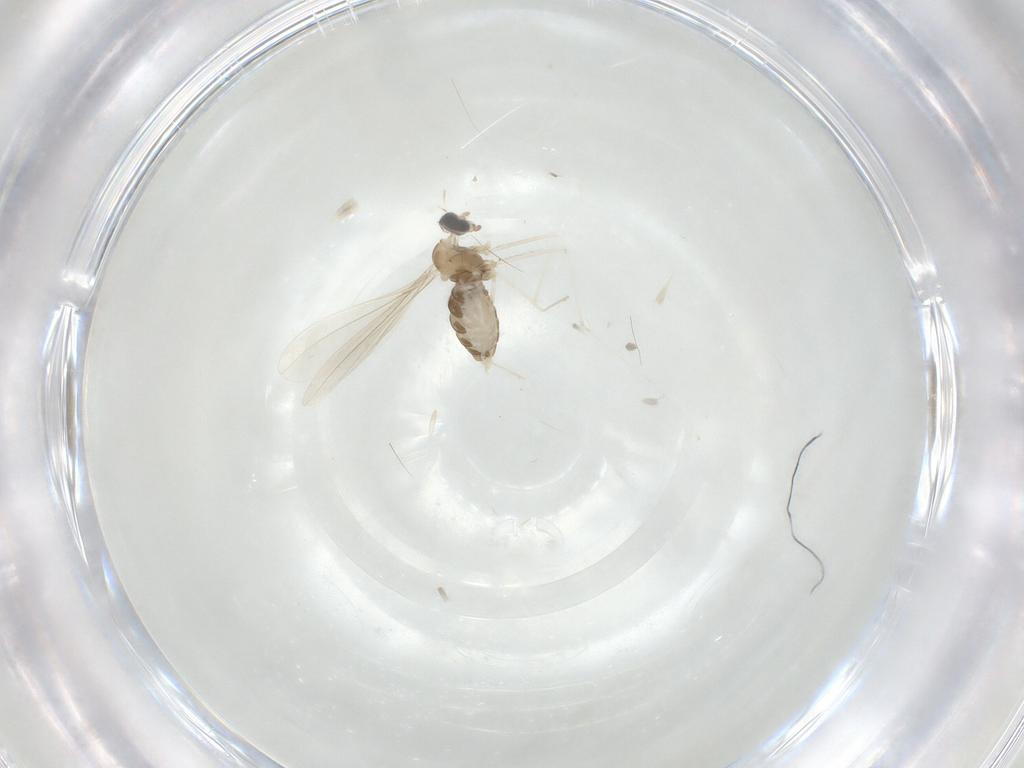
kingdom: Animalia
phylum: Arthropoda
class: Insecta
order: Diptera
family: Cecidomyiidae
